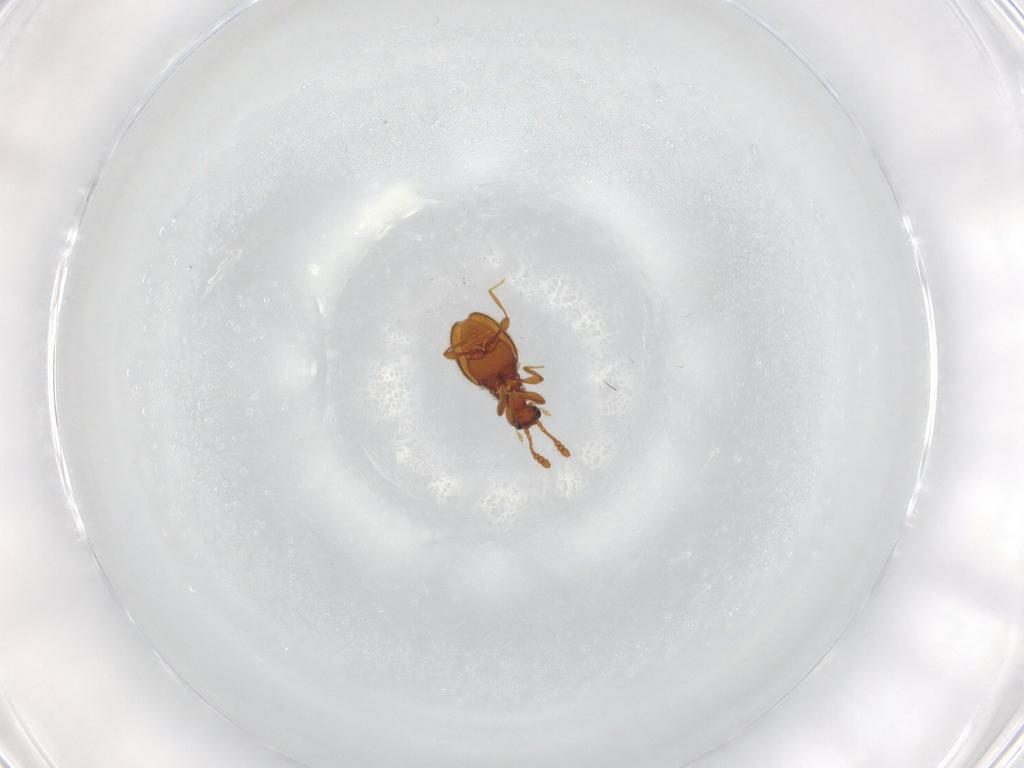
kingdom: Animalia
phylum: Arthropoda
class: Insecta
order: Coleoptera
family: Staphylinidae
